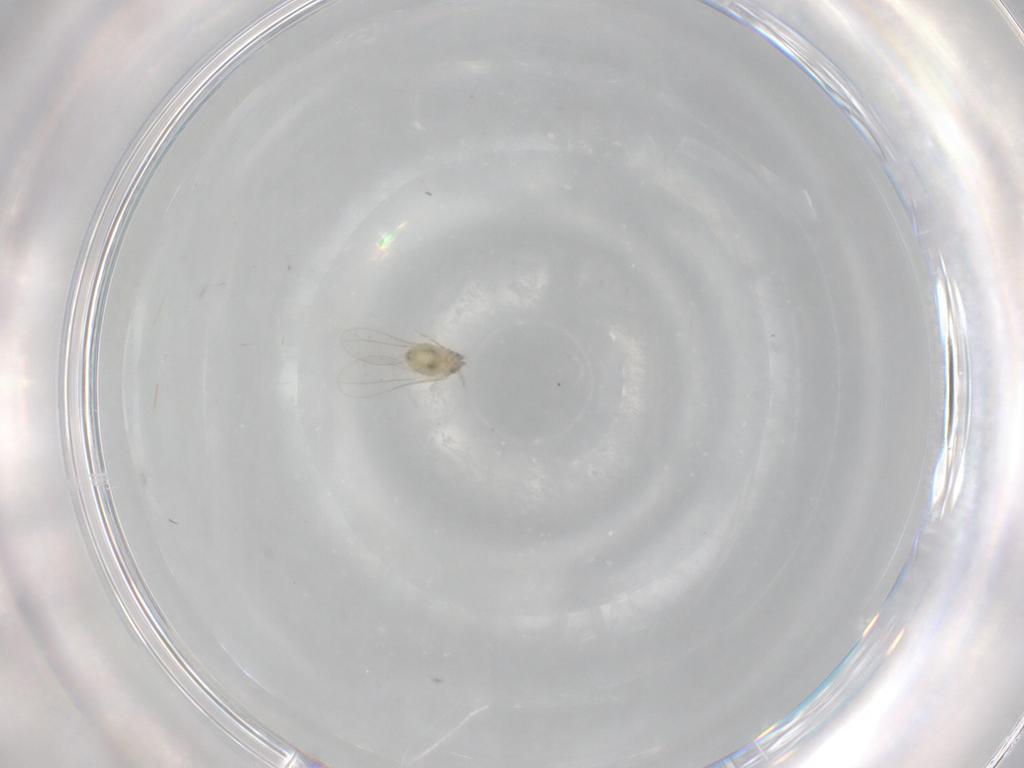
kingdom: Animalia
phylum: Arthropoda
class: Insecta
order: Diptera
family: Cecidomyiidae
